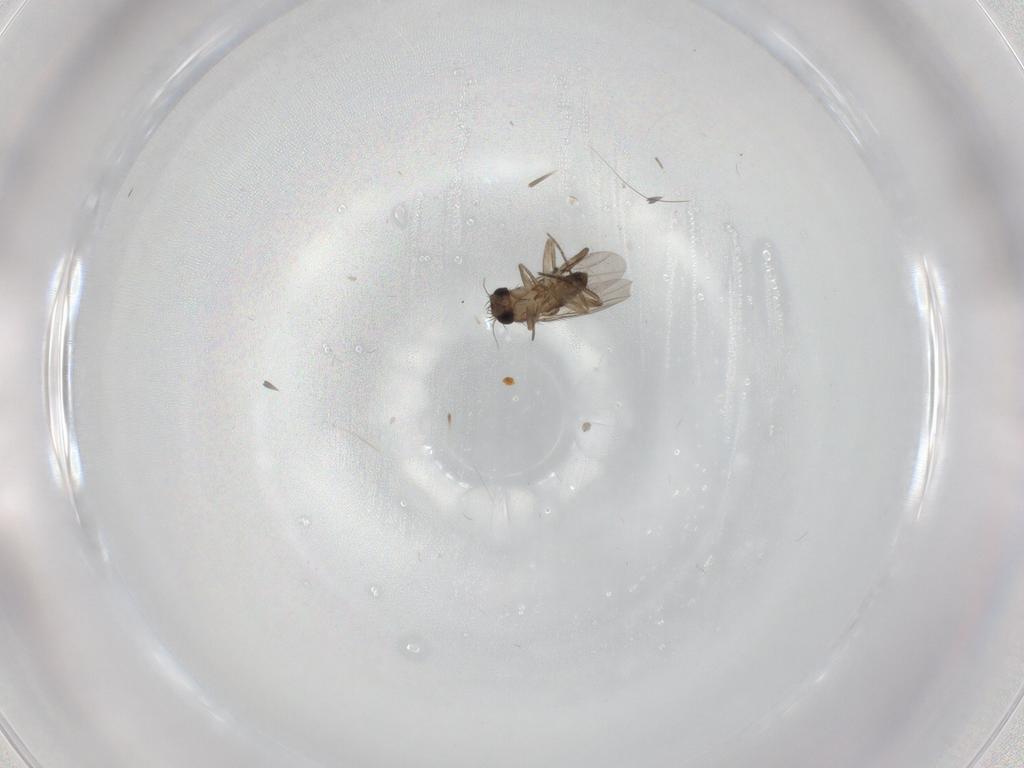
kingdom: Animalia
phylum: Arthropoda
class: Insecta
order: Diptera
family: Phoridae
